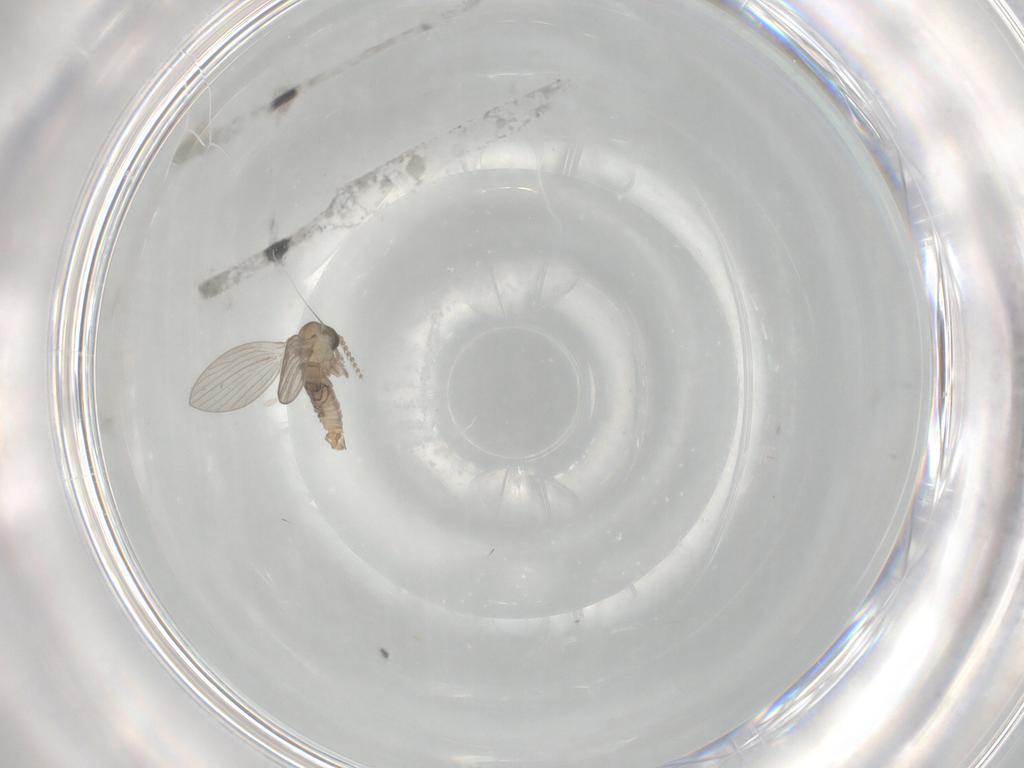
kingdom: Animalia
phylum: Arthropoda
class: Insecta
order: Diptera
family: Psychodidae
